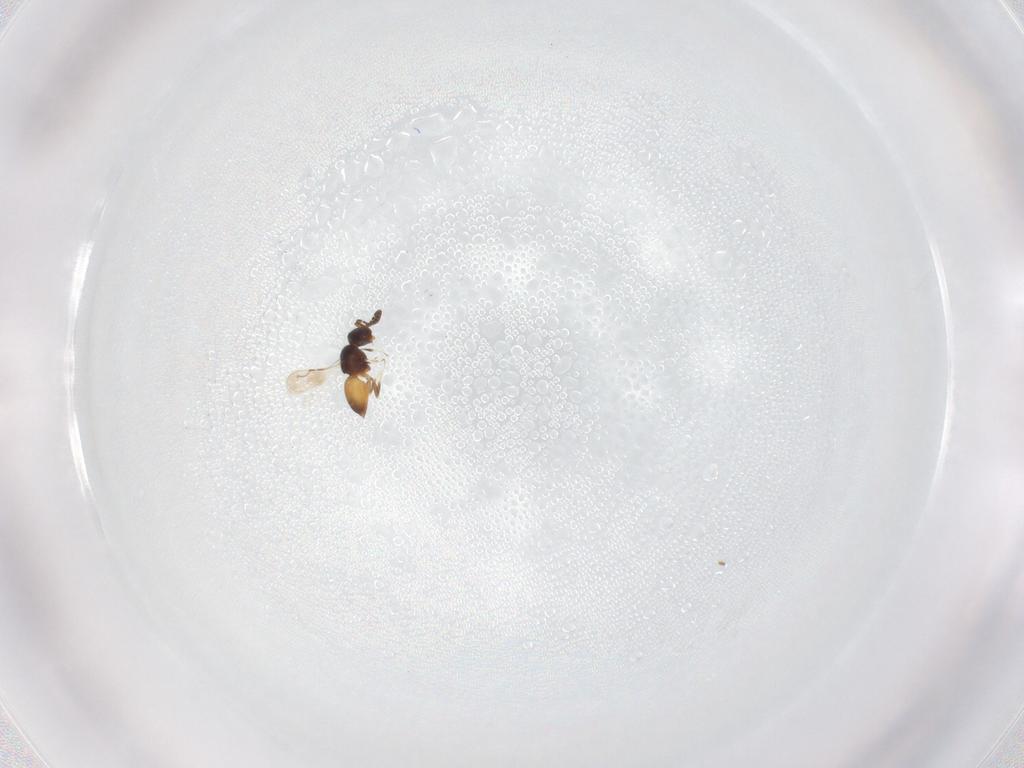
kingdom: Animalia
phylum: Arthropoda
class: Insecta
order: Hymenoptera
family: Ceraphronidae
